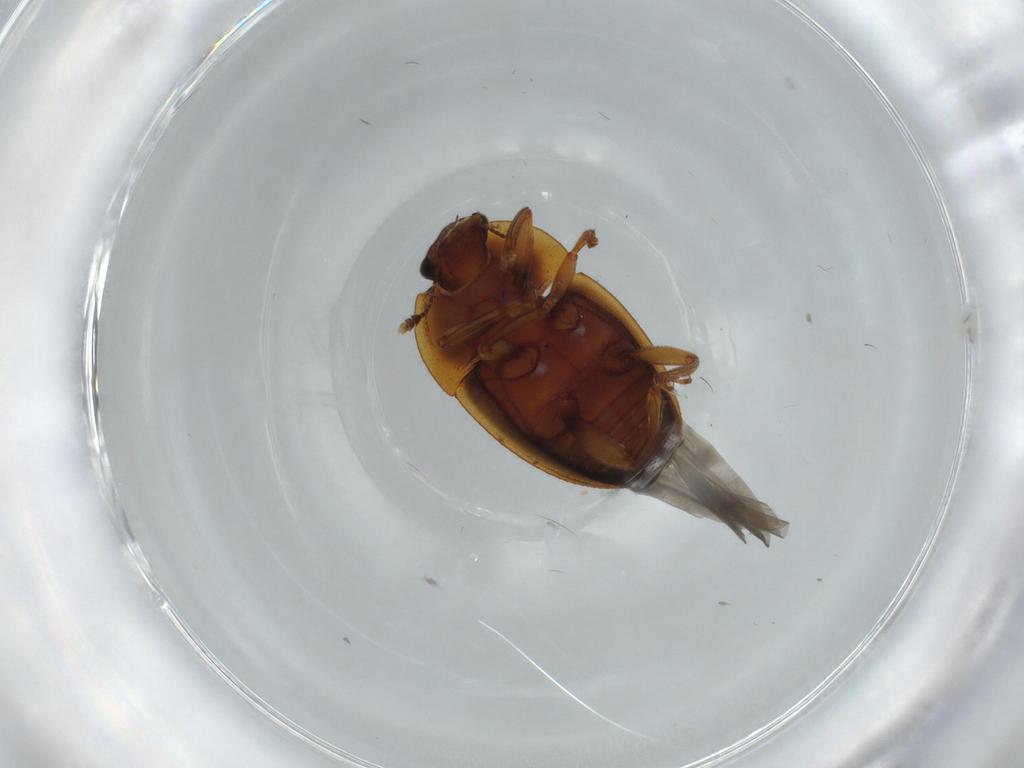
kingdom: Animalia
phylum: Arthropoda
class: Insecta
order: Coleoptera
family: Nitidulidae
